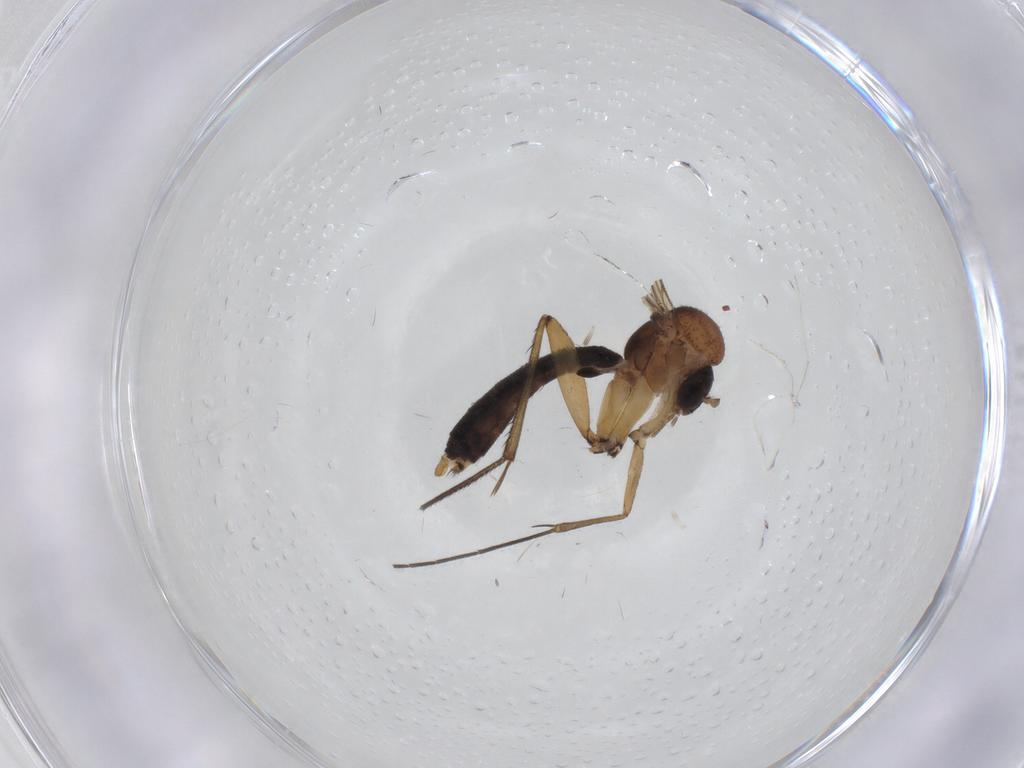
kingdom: Animalia
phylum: Arthropoda
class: Insecta
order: Diptera
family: Mycetophilidae
